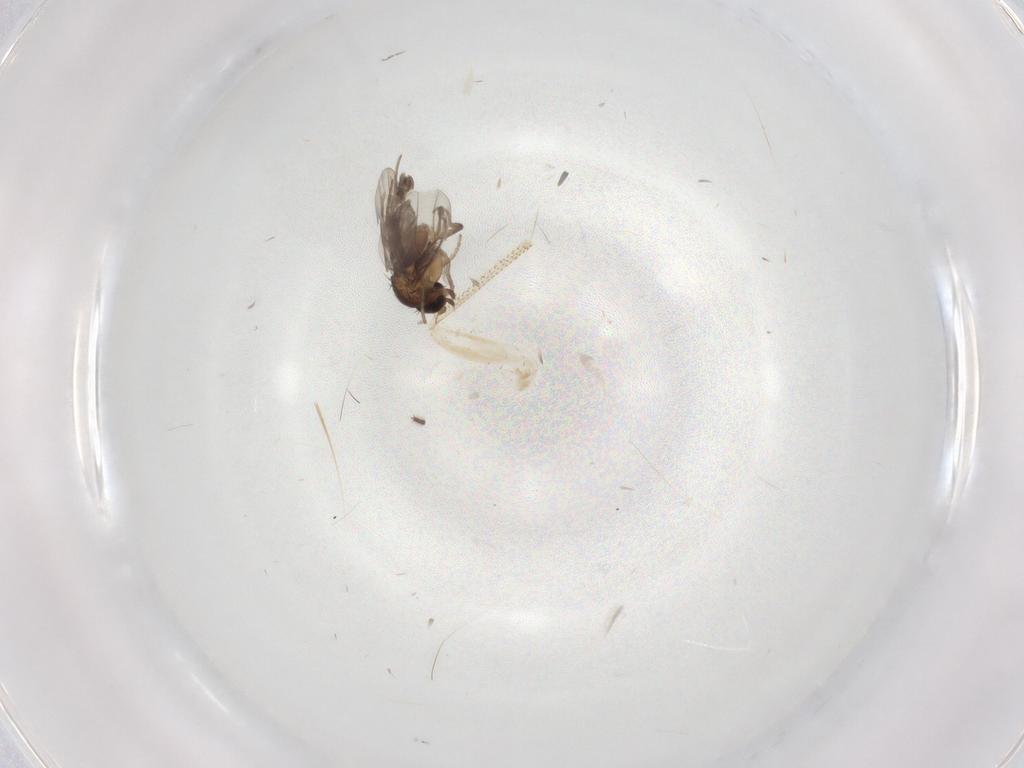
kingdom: Animalia
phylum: Arthropoda
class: Insecta
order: Diptera
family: Phoridae
